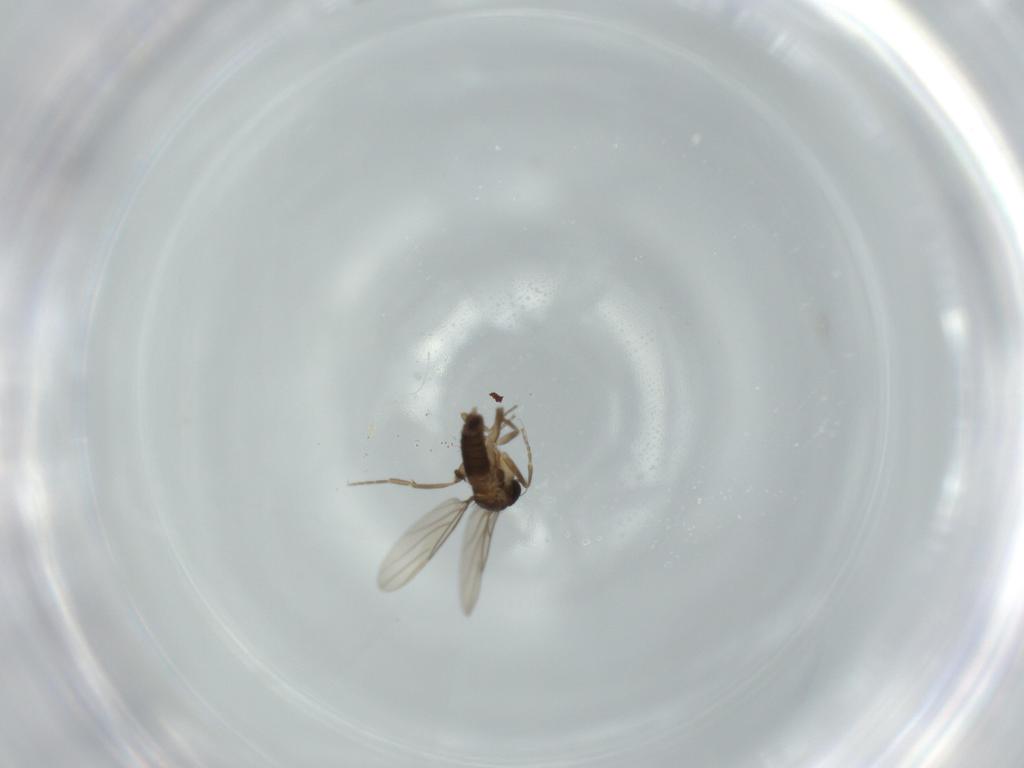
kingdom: Animalia
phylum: Arthropoda
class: Insecta
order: Diptera
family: Phoridae
